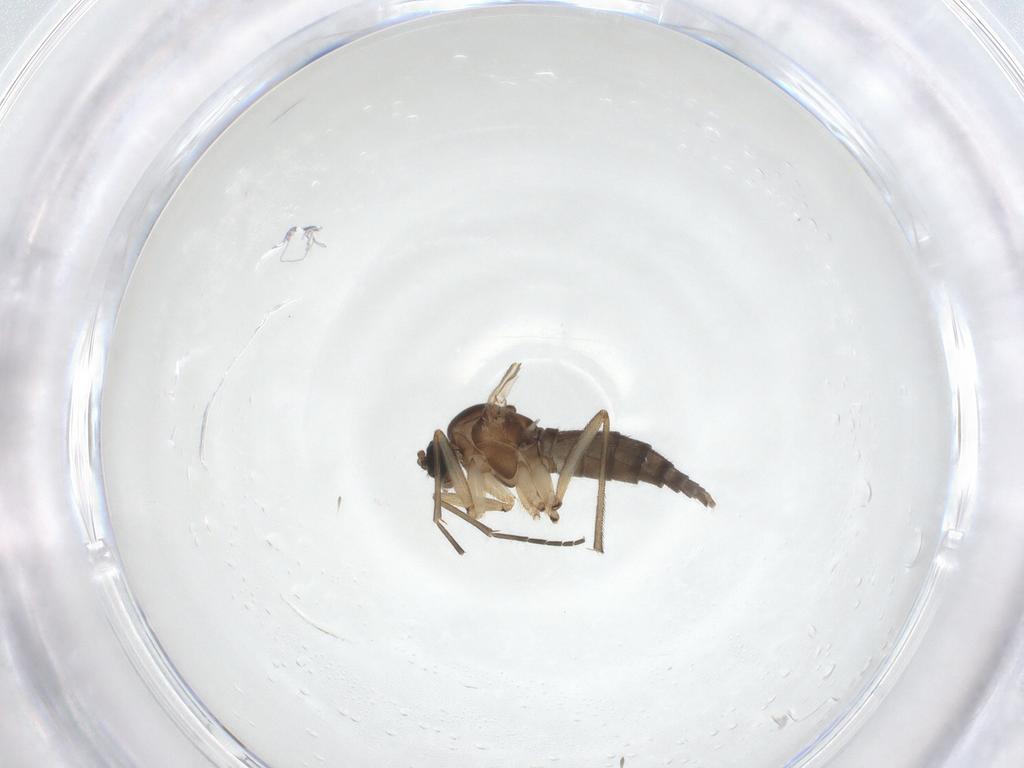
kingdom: Animalia
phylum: Arthropoda
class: Insecta
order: Diptera
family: Sciaridae
